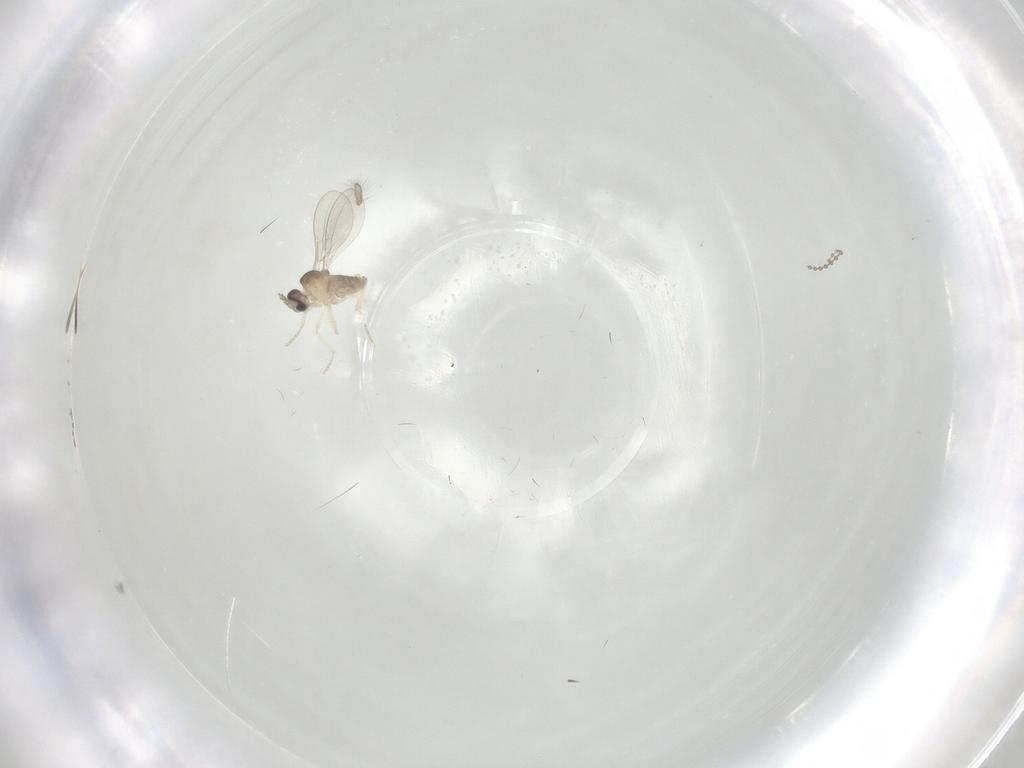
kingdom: Animalia
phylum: Arthropoda
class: Insecta
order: Diptera
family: Cecidomyiidae
